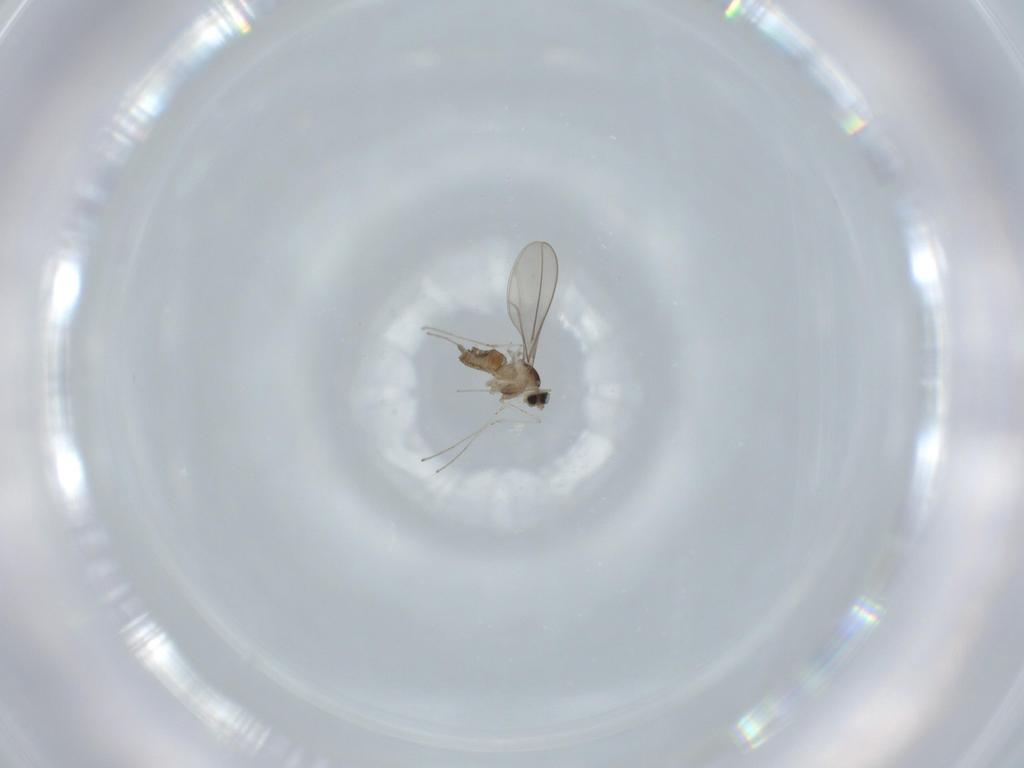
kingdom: Animalia
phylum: Arthropoda
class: Insecta
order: Diptera
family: Cecidomyiidae
